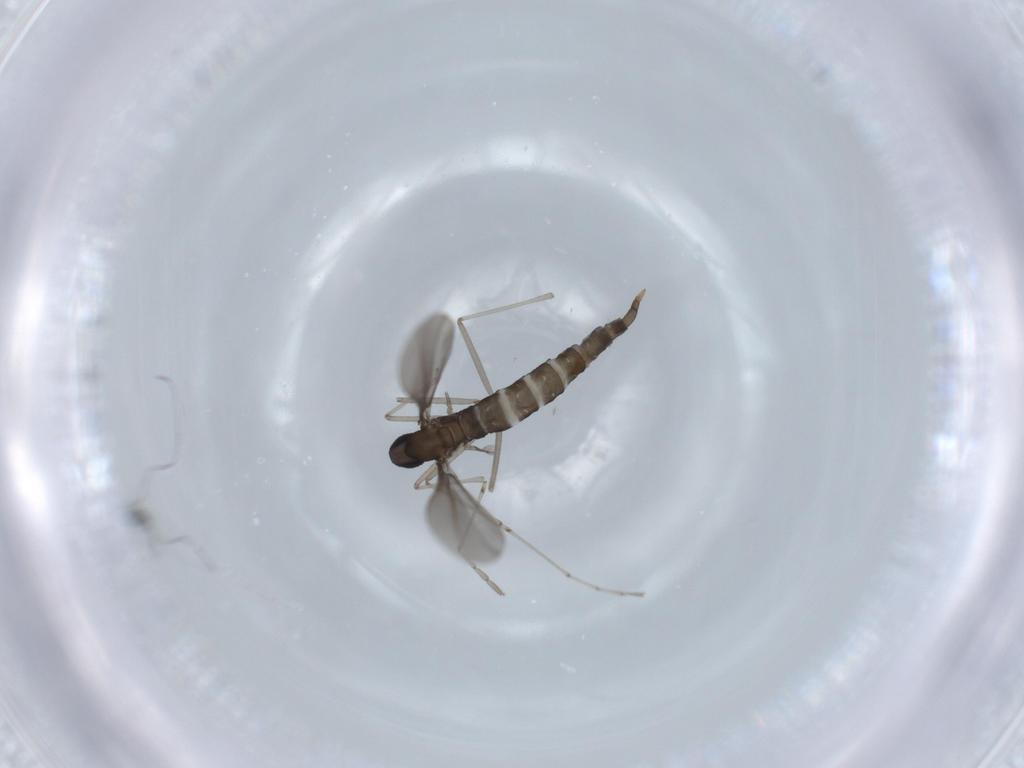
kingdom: Animalia
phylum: Arthropoda
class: Insecta
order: Diptera
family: Cecidomyiidae
